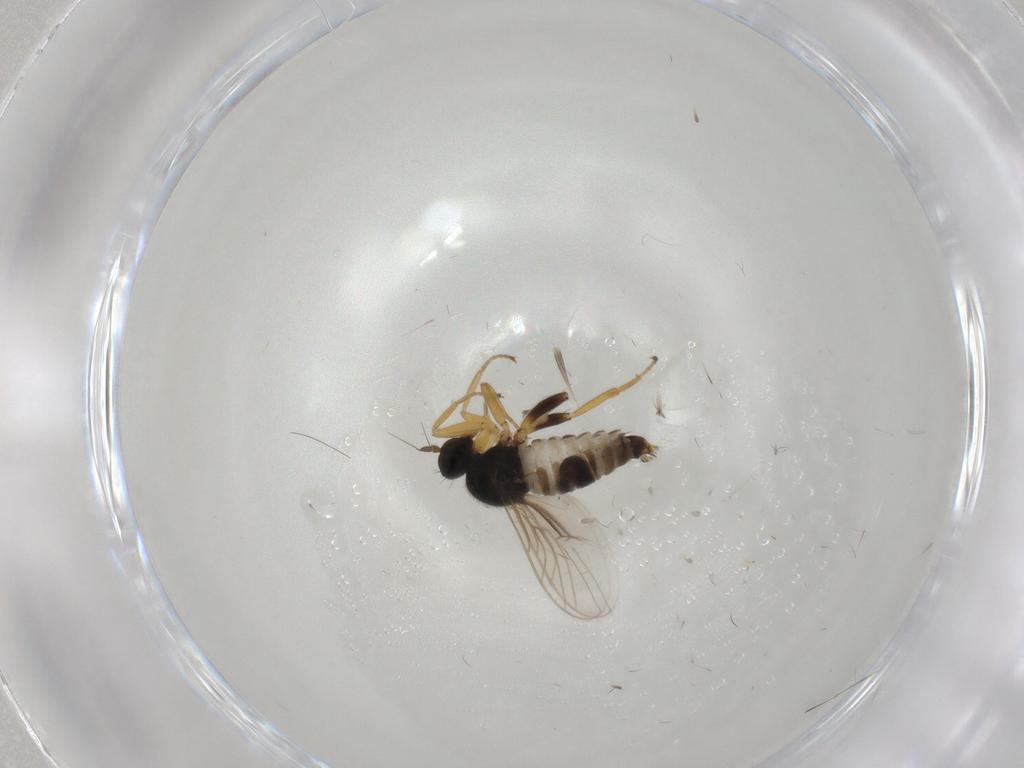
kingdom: Animalia
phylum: Arthropoda
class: Insecta
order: Diptera
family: Hybotidae
